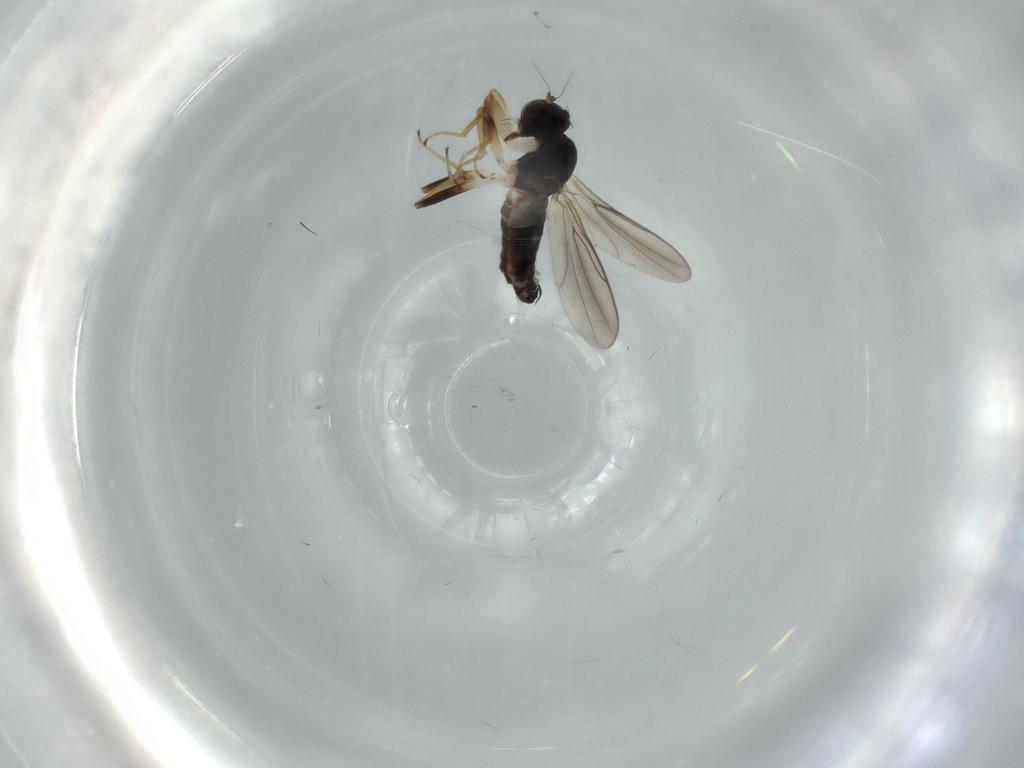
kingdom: Animalia
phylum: Arthropoda
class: Insecta
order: Diptera
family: Hybotidae
